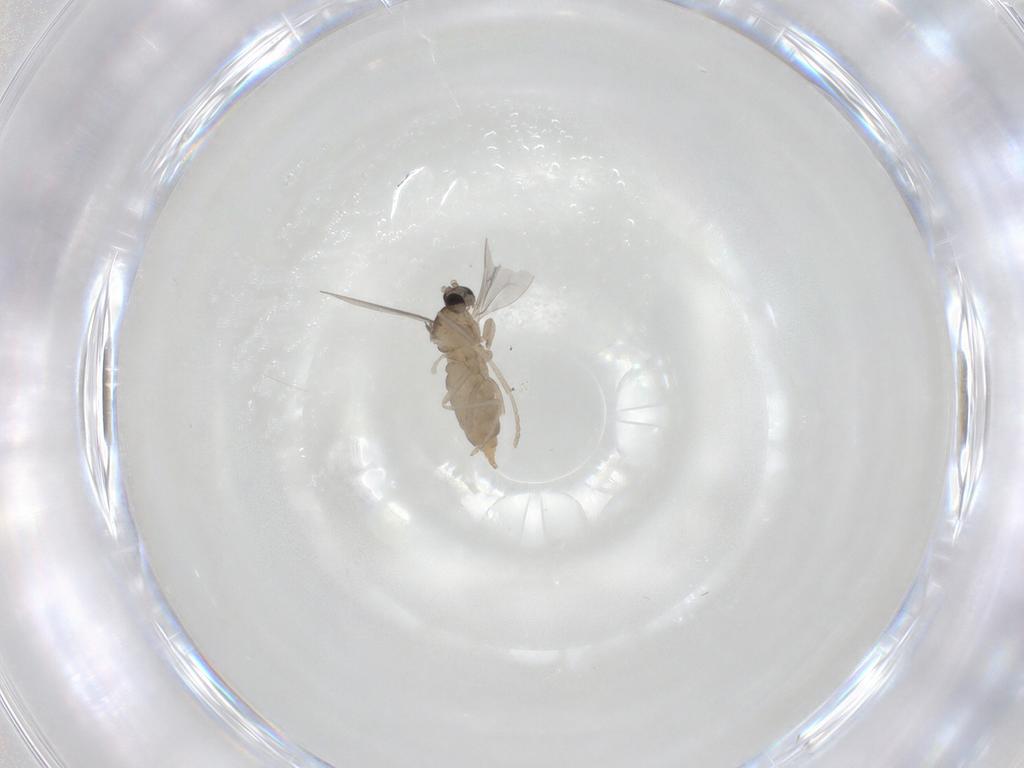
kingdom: Animalia
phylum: Arthropoda
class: Insecta
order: Diptera
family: Cecidomyiidae
